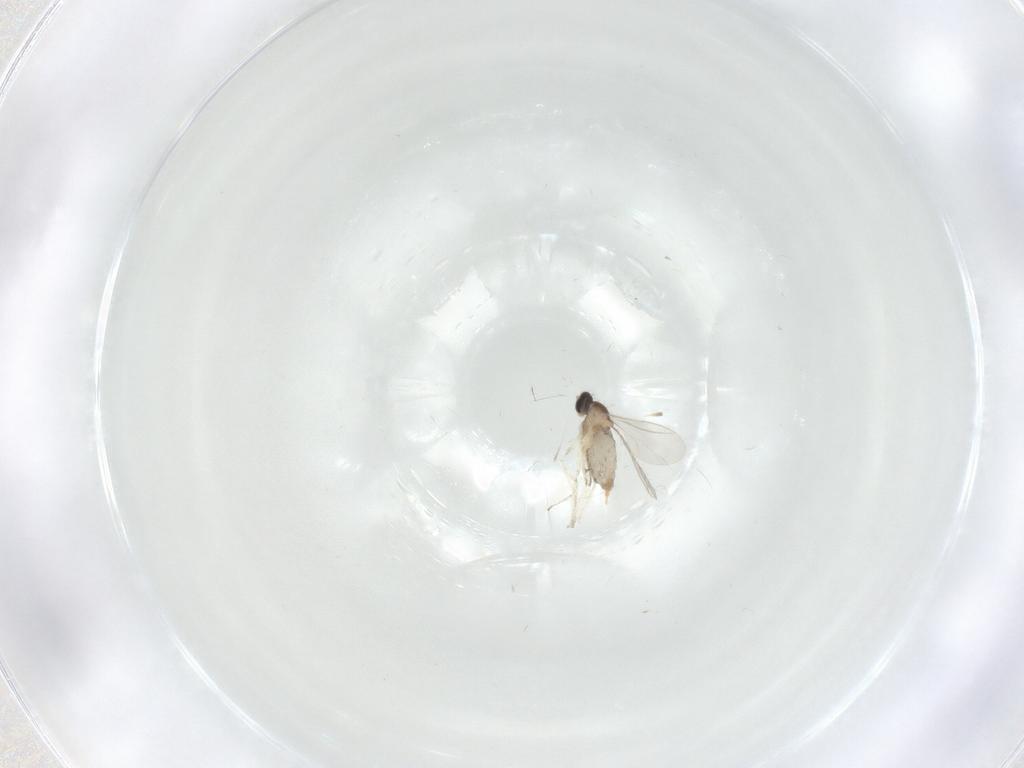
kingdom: Animalia
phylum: Arthropoda
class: Insecta
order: Diptera
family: Chironomidae
